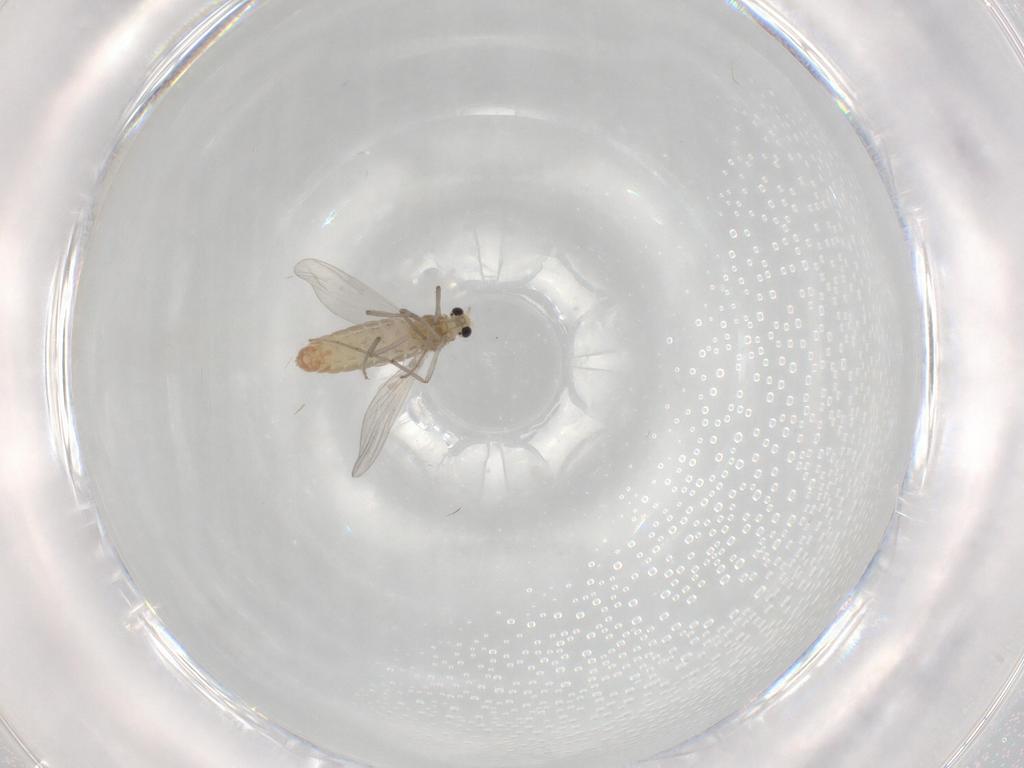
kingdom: Animalia
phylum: Arthropoda
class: Insecta
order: Diptera
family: Chironomidae
